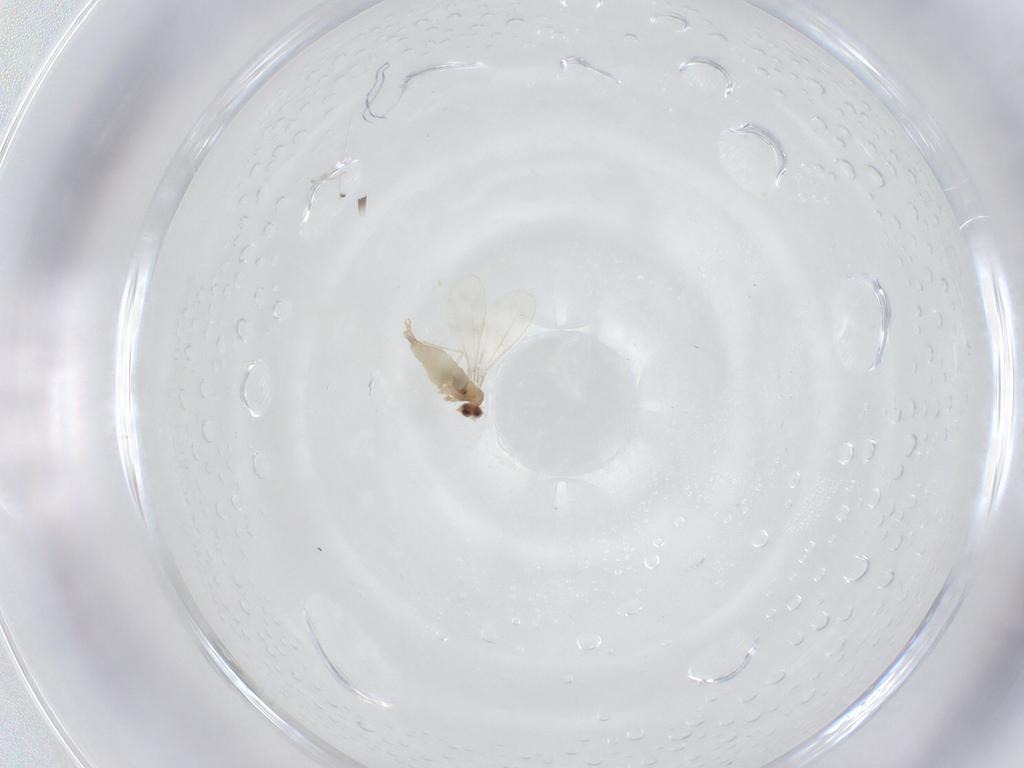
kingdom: Animalia
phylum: Arthropoda
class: Insecta
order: Diptera
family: Cecidomyiidae
